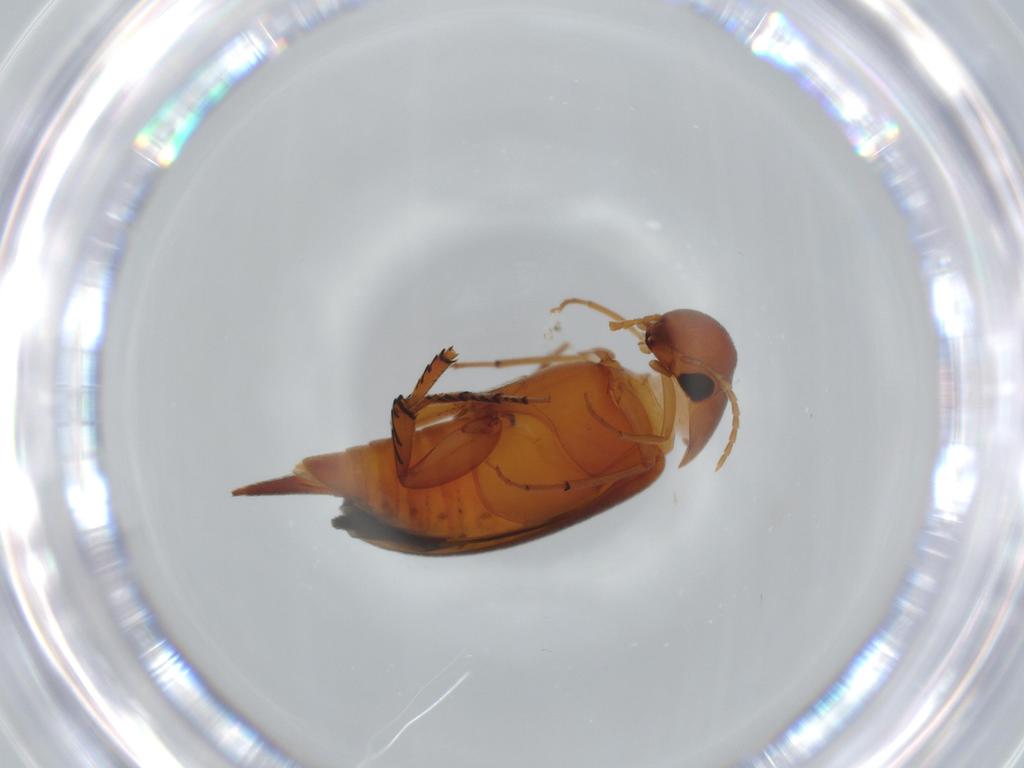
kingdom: Animalia
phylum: Arthropoda
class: Insecta
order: Coleoptera
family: Mordellidae
